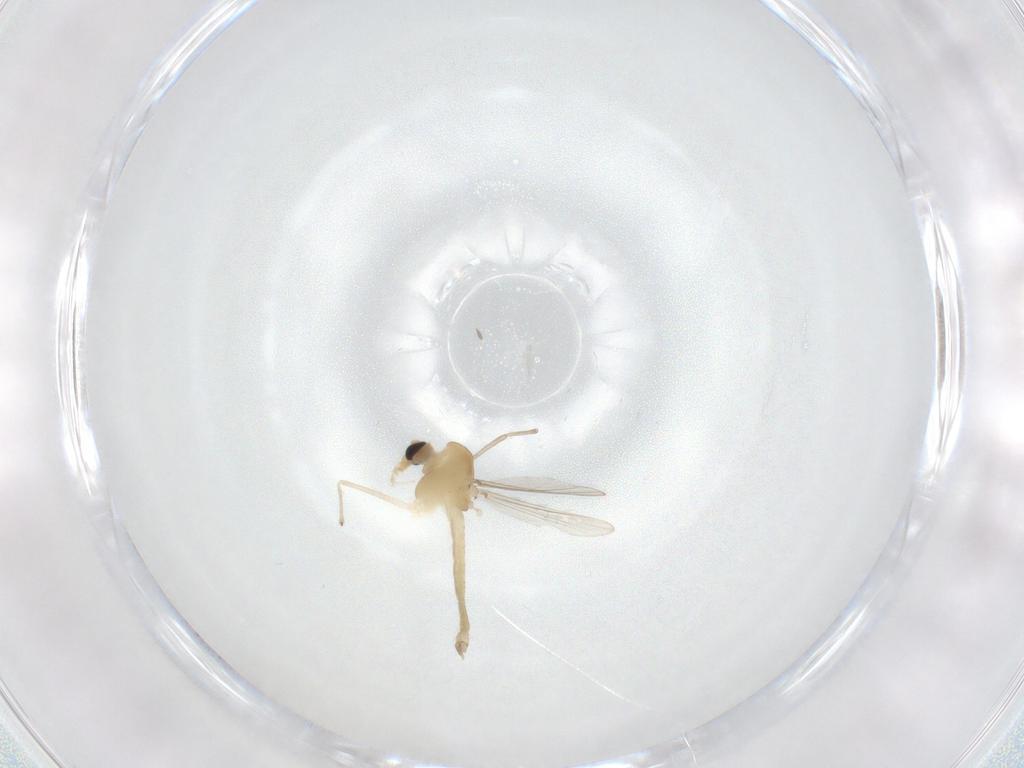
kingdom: Animalia
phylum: Arthropoda
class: Insecta
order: Diptera
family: Chironomidae
